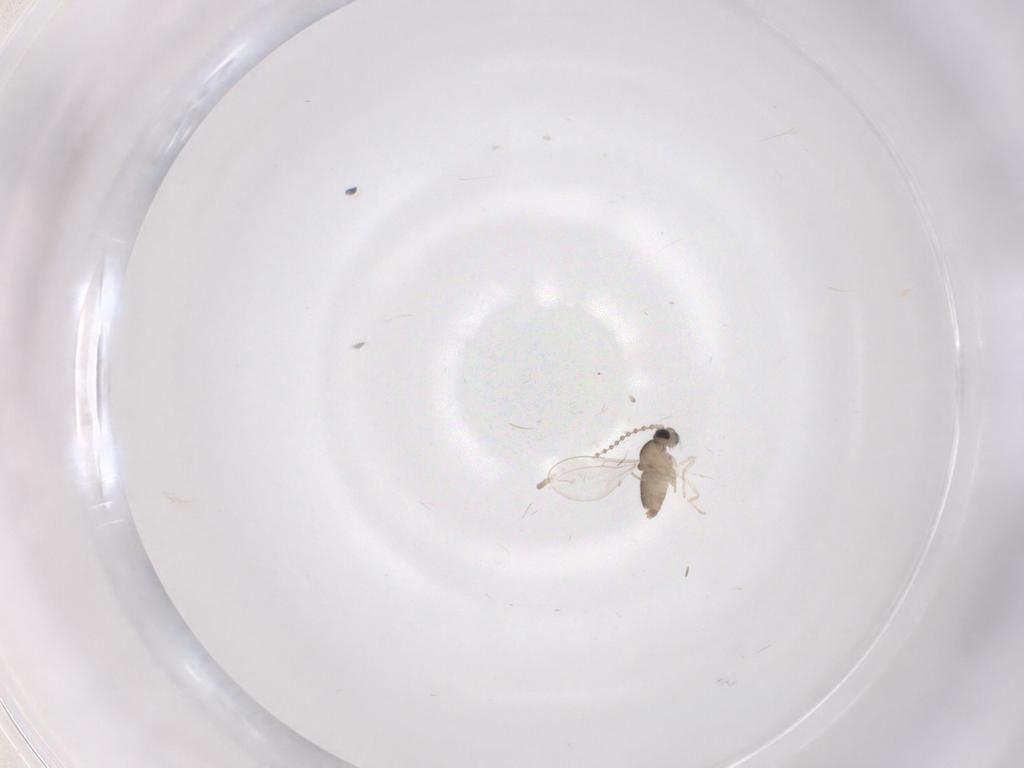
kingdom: Animalia
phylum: Arthropoda
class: Insecta
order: Diptera
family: Cecidomyiidae
